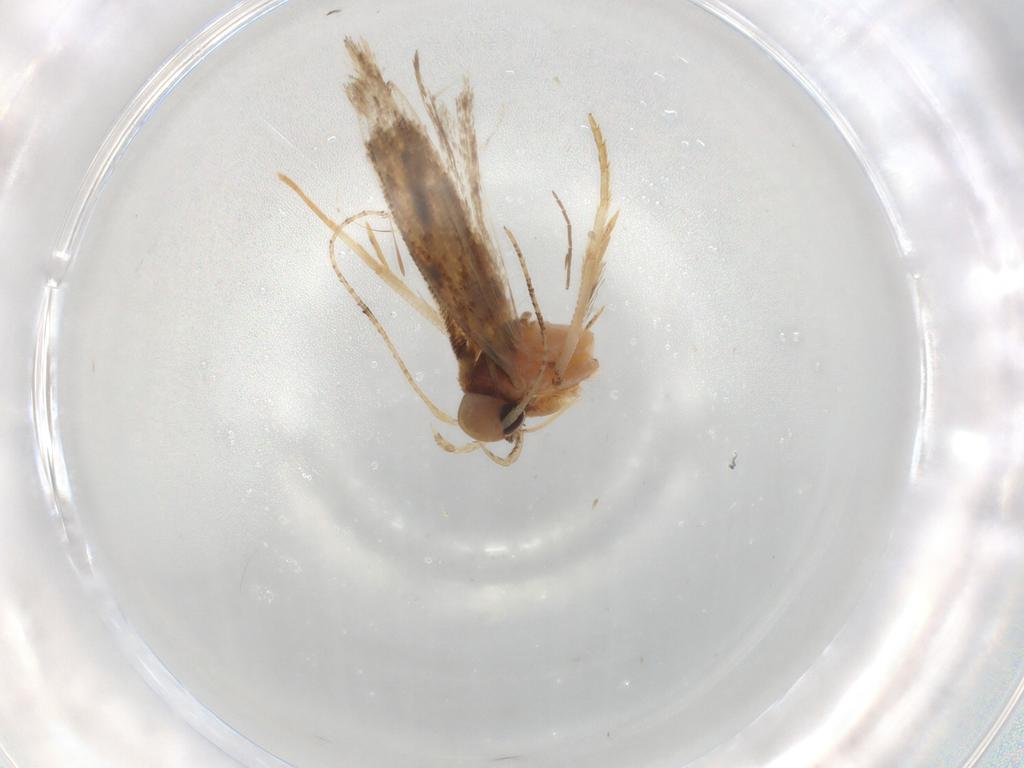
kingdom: Animalia
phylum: Arthropoda
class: Insecta
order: Lepidoptera
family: Gelechiidae
